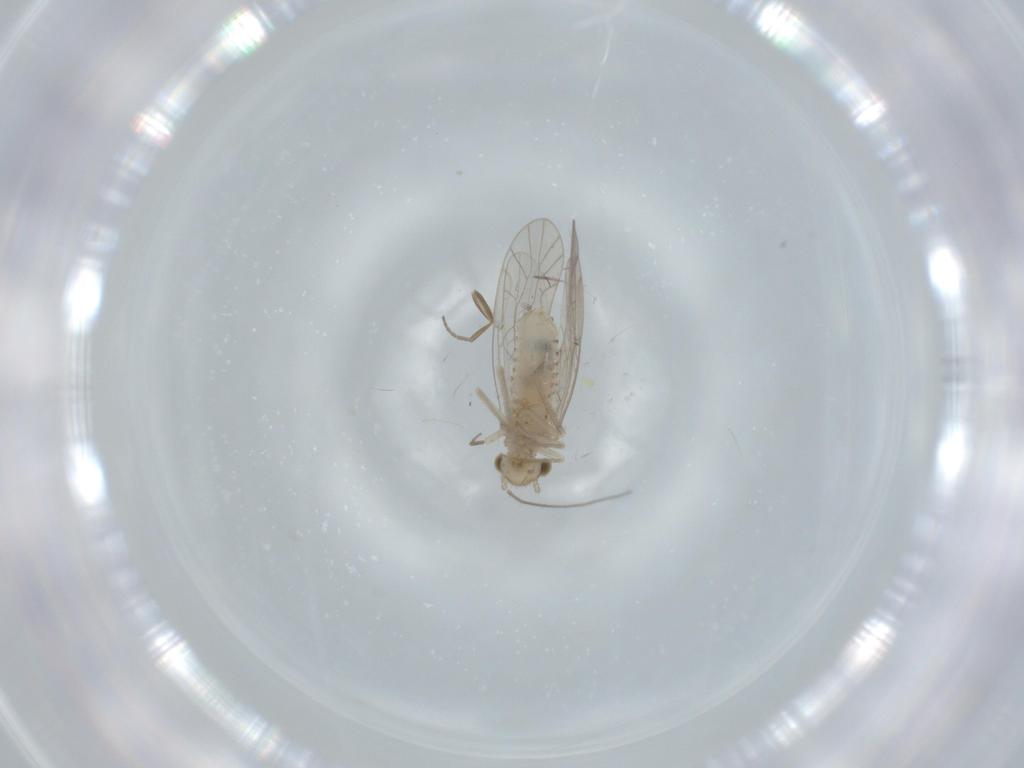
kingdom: Animalia
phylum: Arthropoda
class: Insecta
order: Psocodea
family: Lachesillidae
